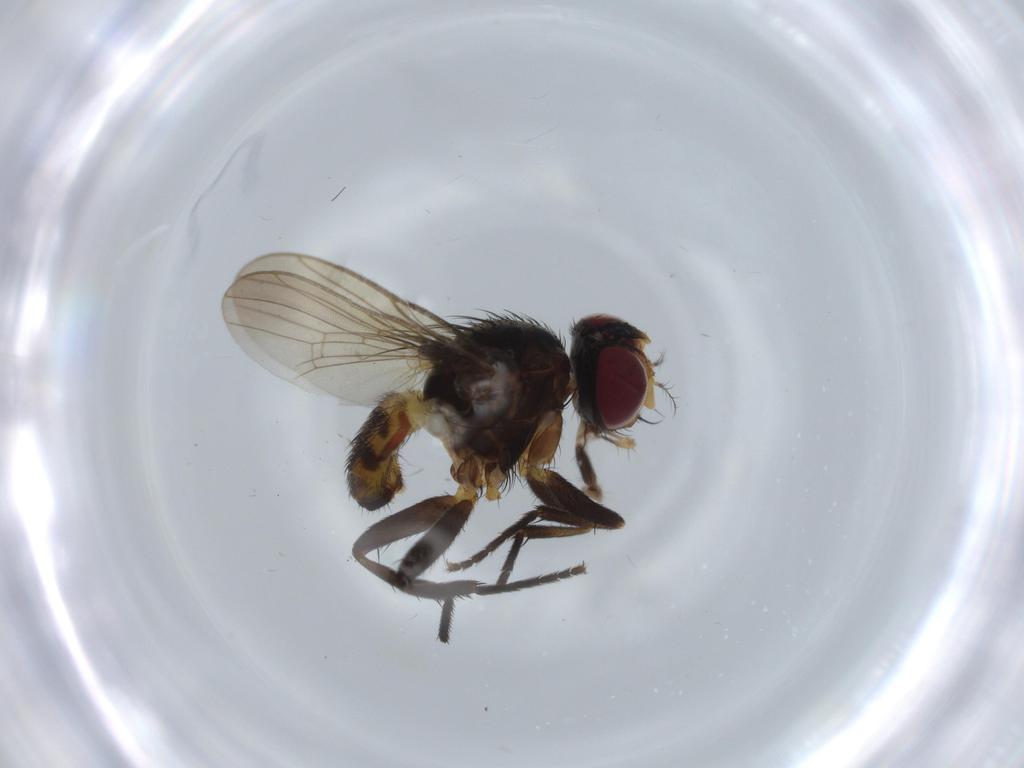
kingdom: Animalia
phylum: Arthropoda
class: Insecta
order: Diptera
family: Anthomyiidae
